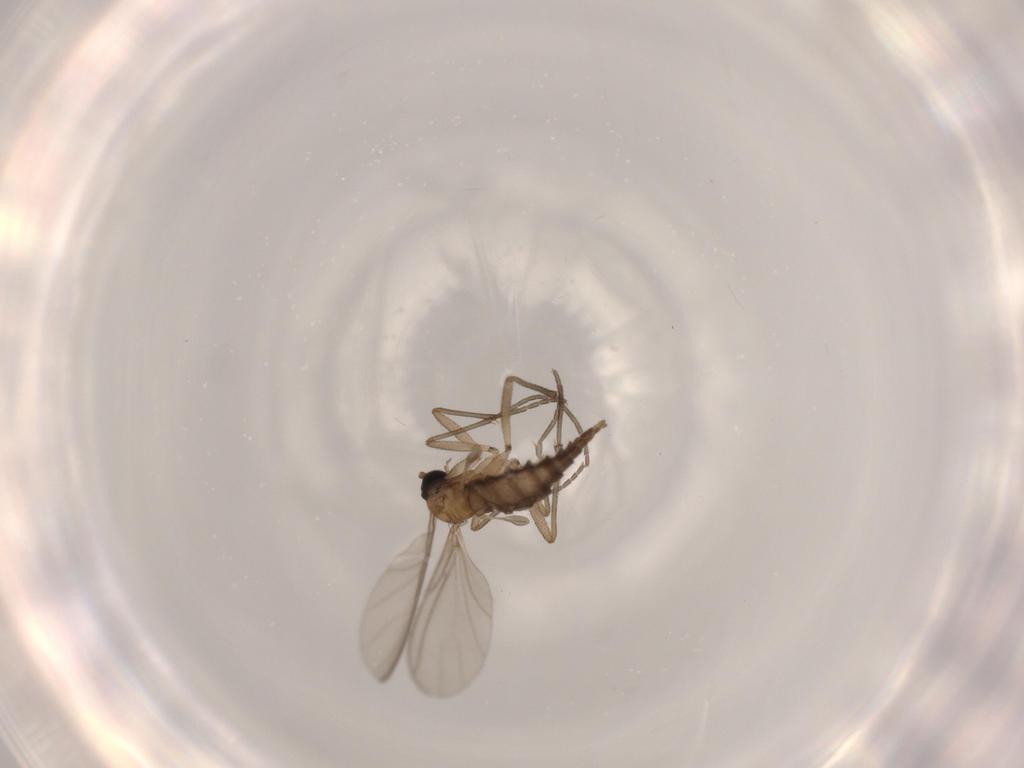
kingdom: Animalia
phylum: Arthropoda
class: Insecta
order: Diptera
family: Sciaridae
